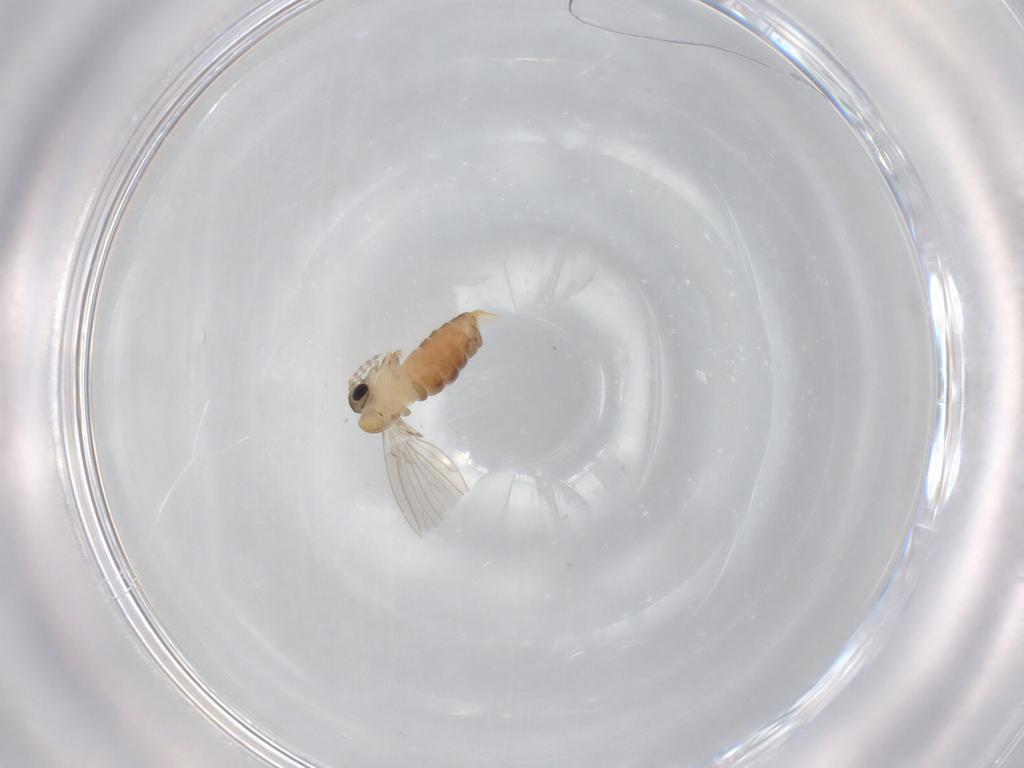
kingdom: Animalia
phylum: Arthropoda
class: Insecta
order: Diptera
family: Psychodidae
